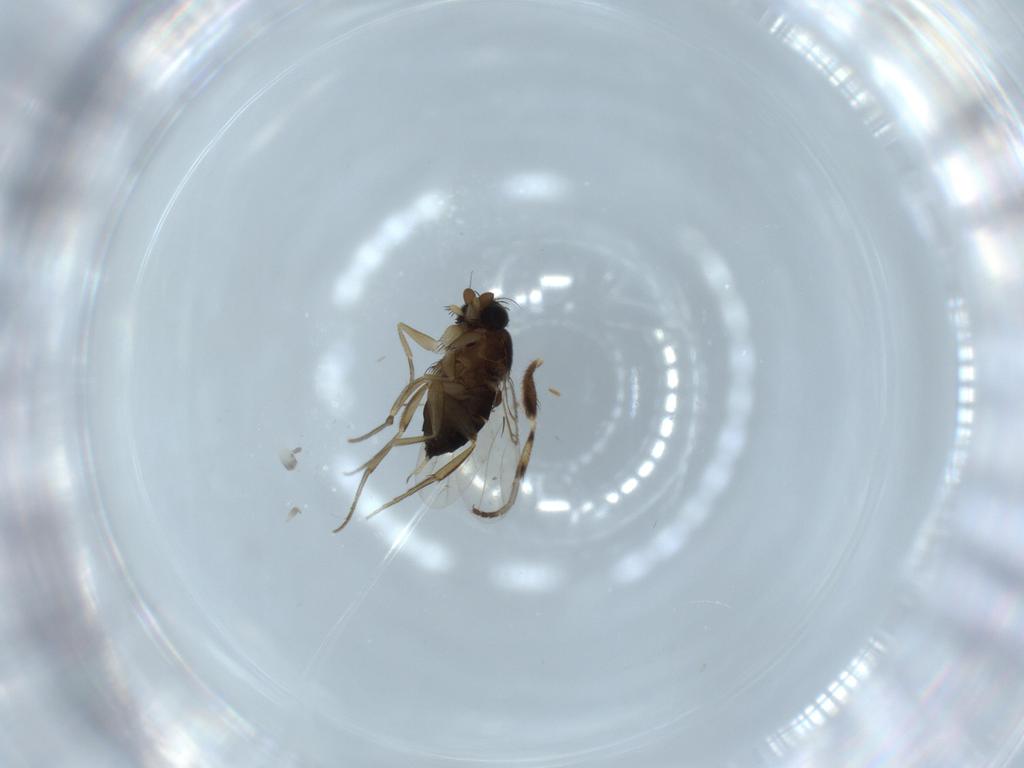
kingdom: Animalia
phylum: Arthropoda
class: Insecta
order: Diptera
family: Heleomyzidae
